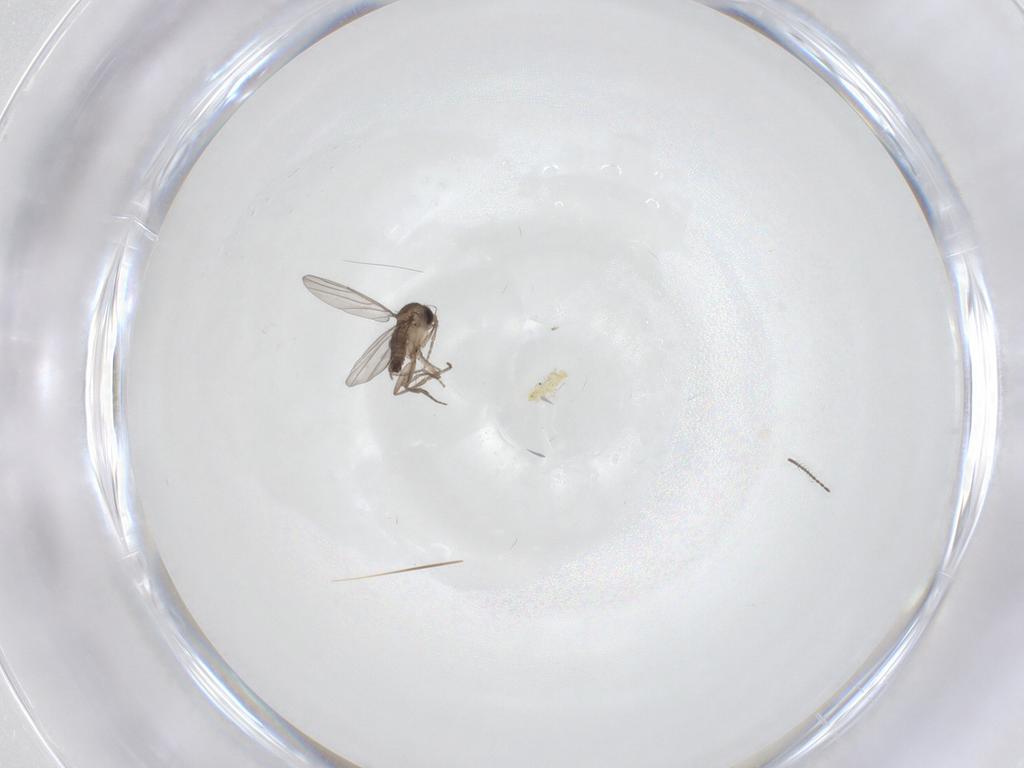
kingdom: Animalia
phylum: Arthropoda
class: Insecta
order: Diptera
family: Ceratopogonidae
